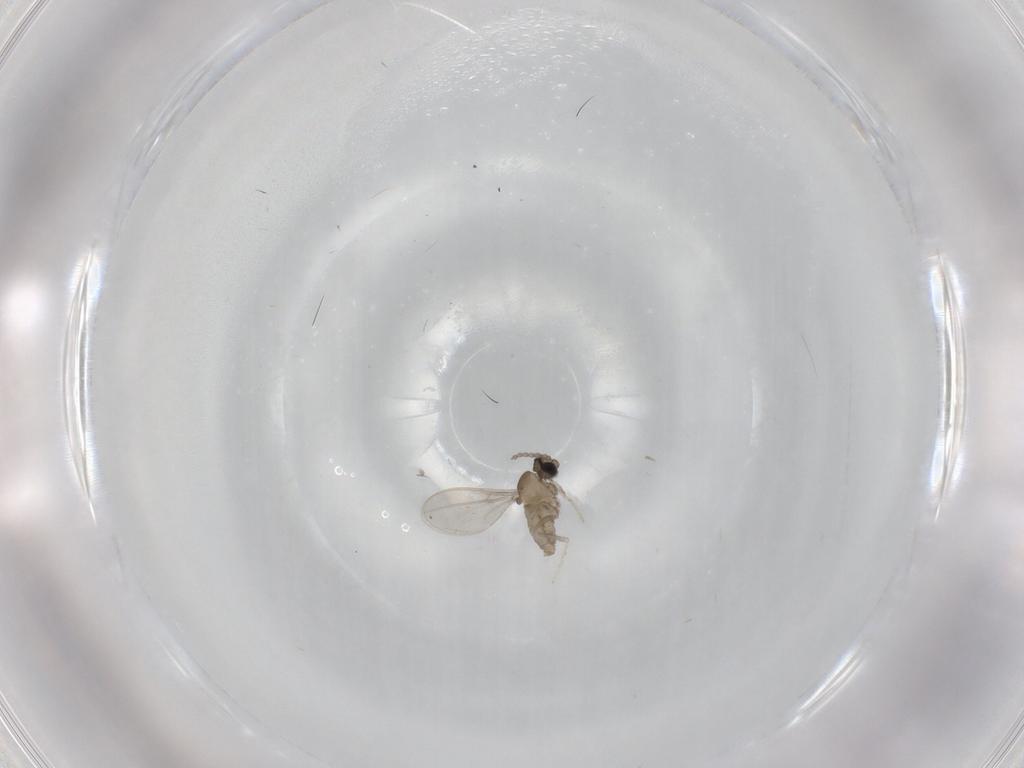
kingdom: Animalia
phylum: Arthropoda
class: Insecta
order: Diptera
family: Cecidomyiidae
